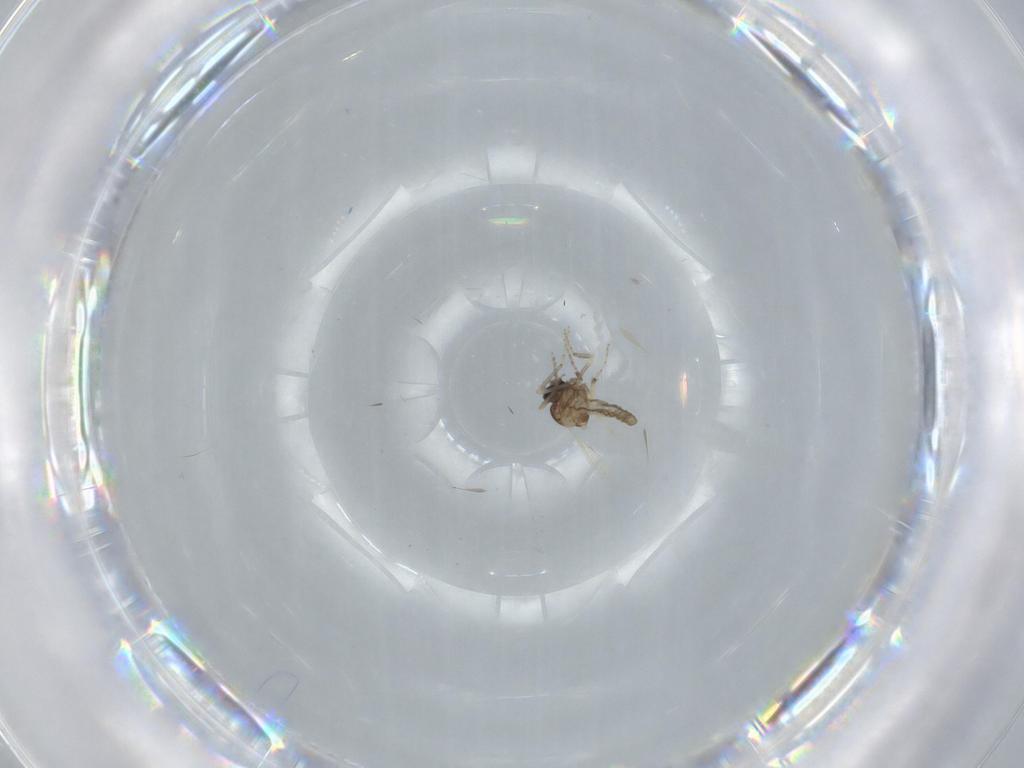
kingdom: Animalia
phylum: Arthropoda
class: Insecta
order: Diptera
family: Ceratopogonidae
